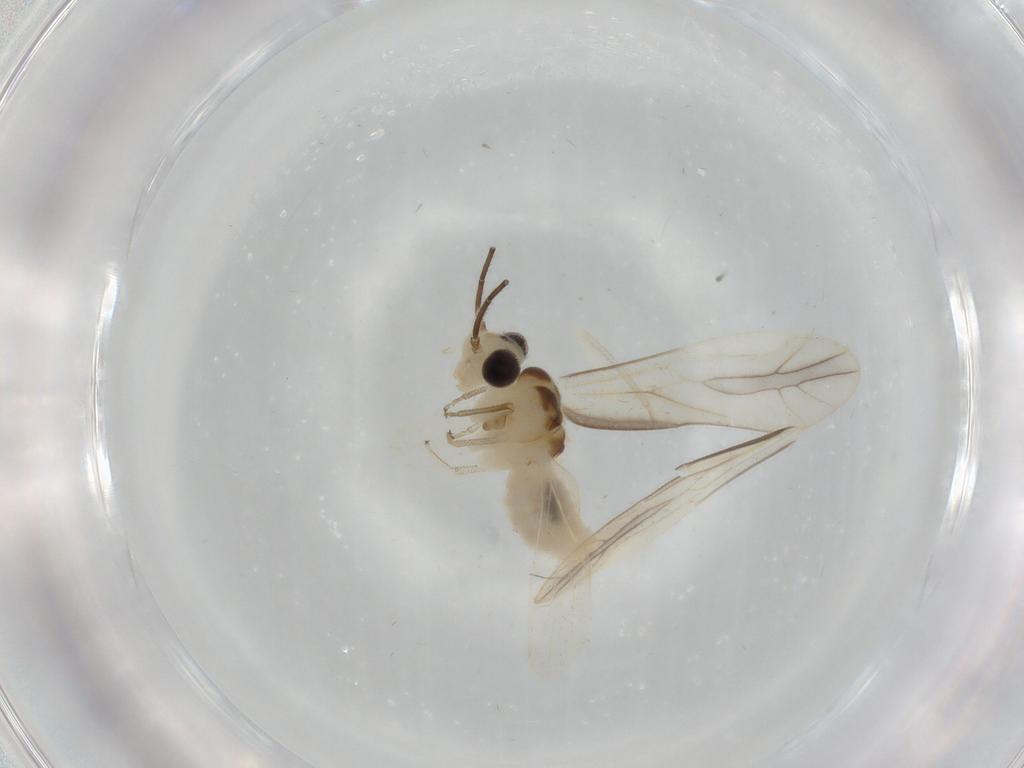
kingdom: Animalia
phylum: Arthropoda
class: Insecta
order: Psocodea
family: Caeciliusidae
